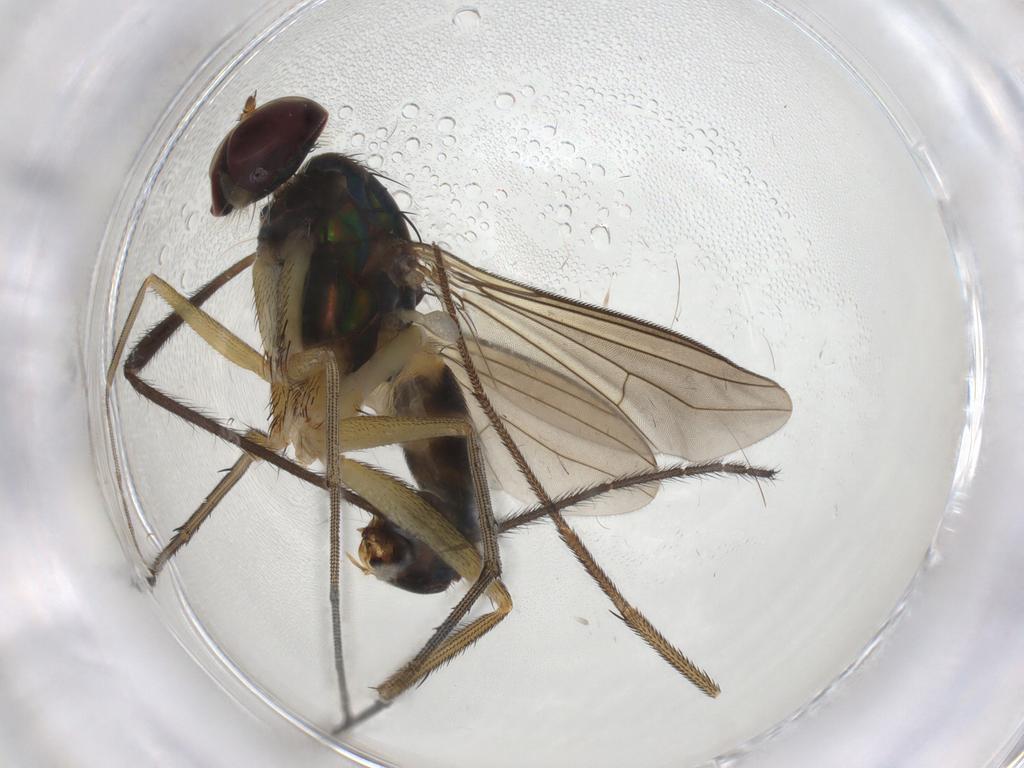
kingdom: Animalia
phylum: Arthropoda
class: Insecta
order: Diptera
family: Dolichopodidae
